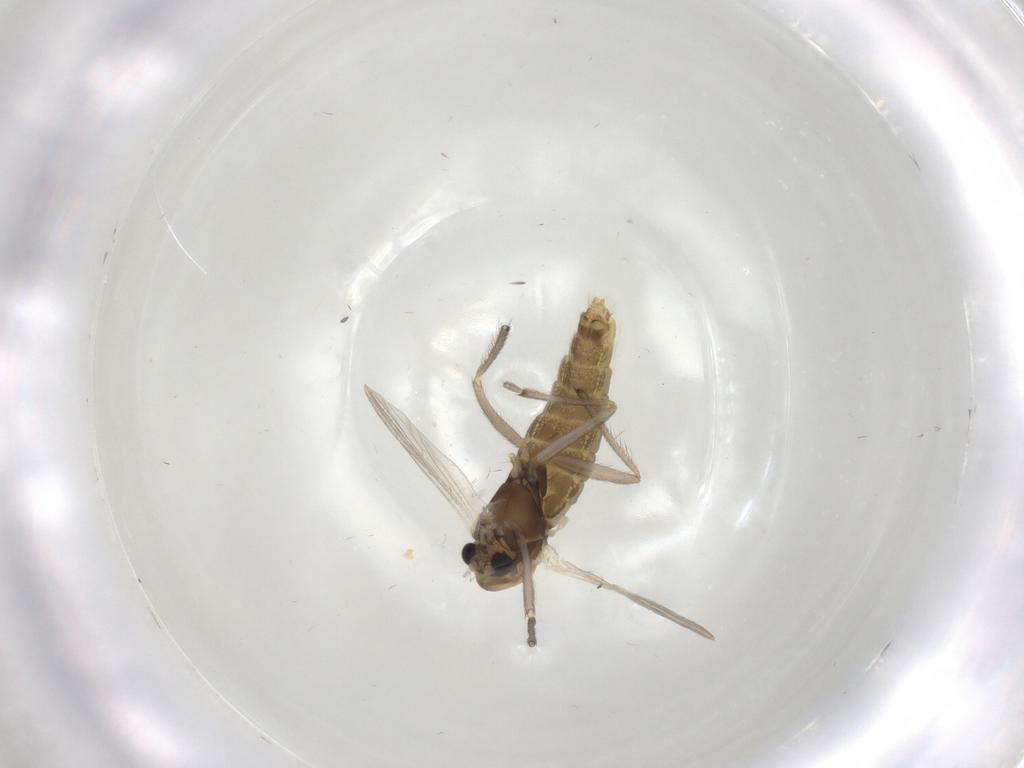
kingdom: Animalia
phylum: Arthropoda
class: Insecta
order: Diptera
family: Chironomidae
